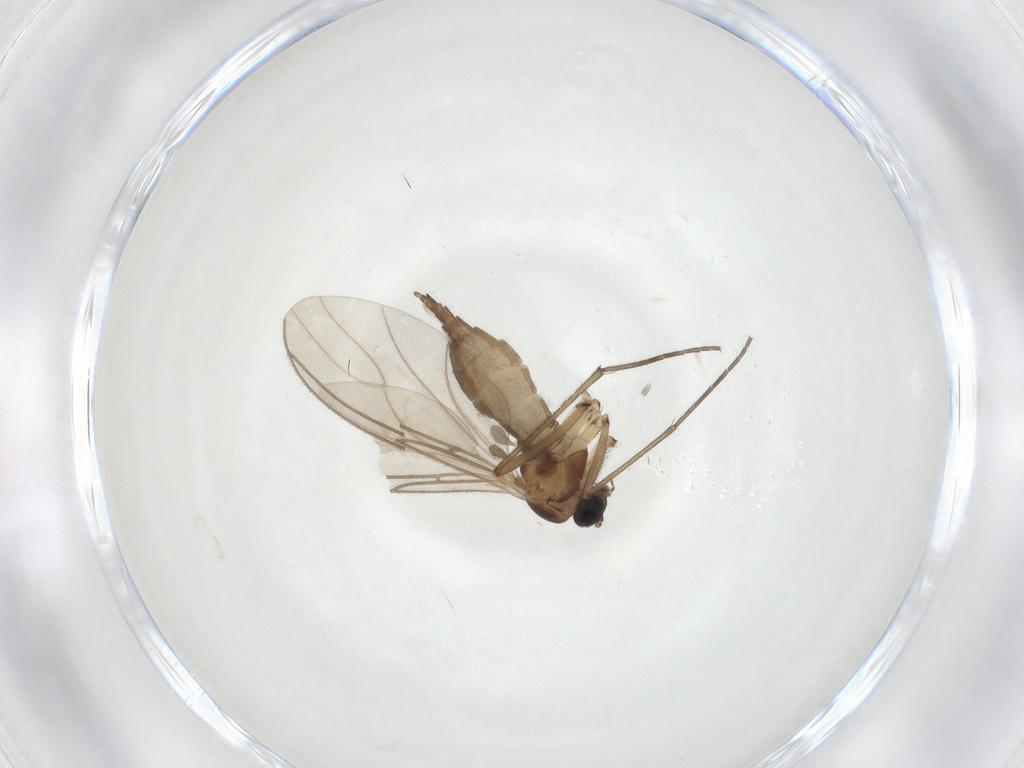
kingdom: Animalia
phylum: Arthropoda
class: Insecta
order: Diptera
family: Sciaridae
